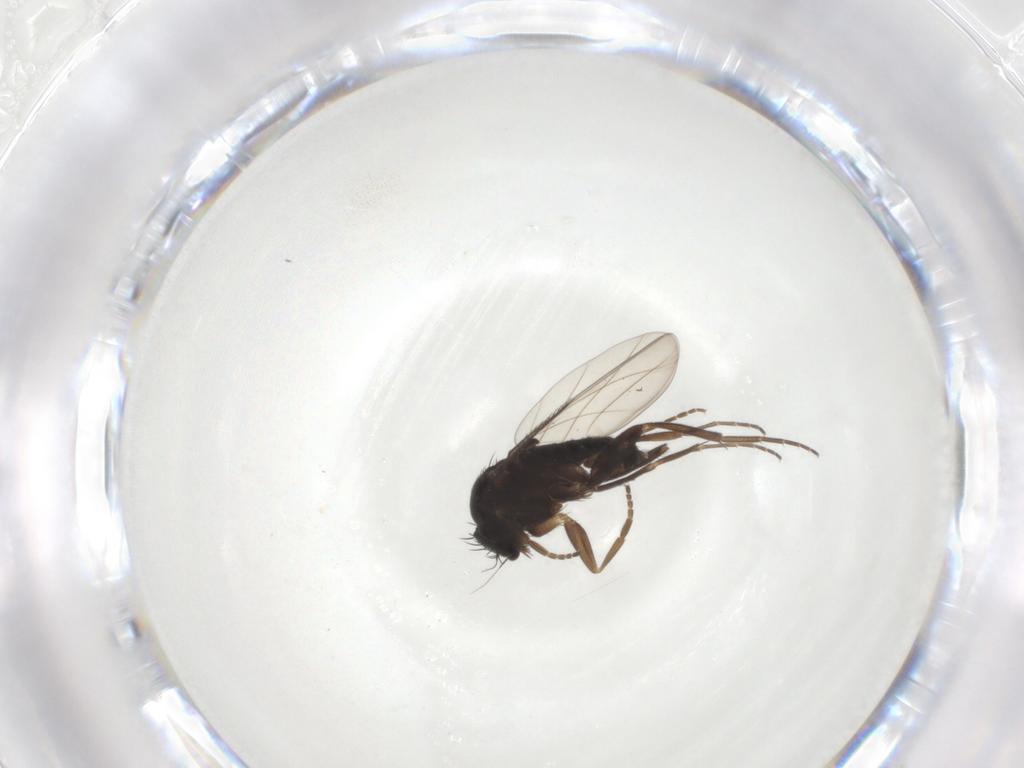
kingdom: Animalia
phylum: Arthropoda
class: Insecta
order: Diptera
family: Phoridae
